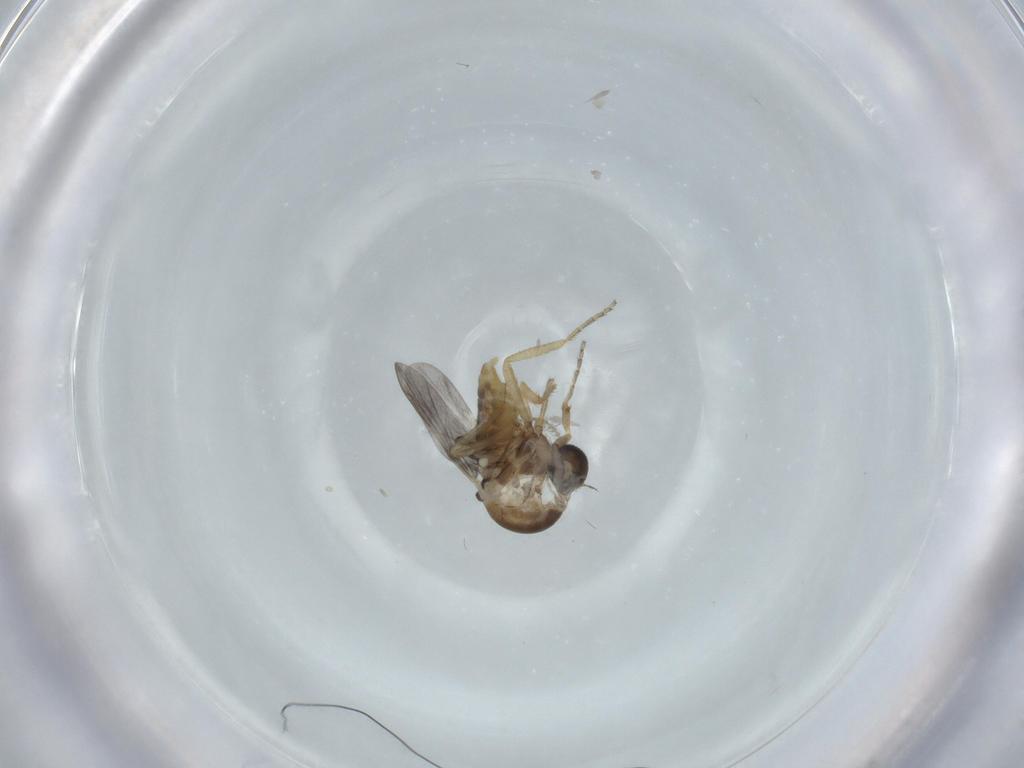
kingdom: Animalia
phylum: Arthropoda
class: Insecta
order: Diptera
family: Ceratopogonidae
